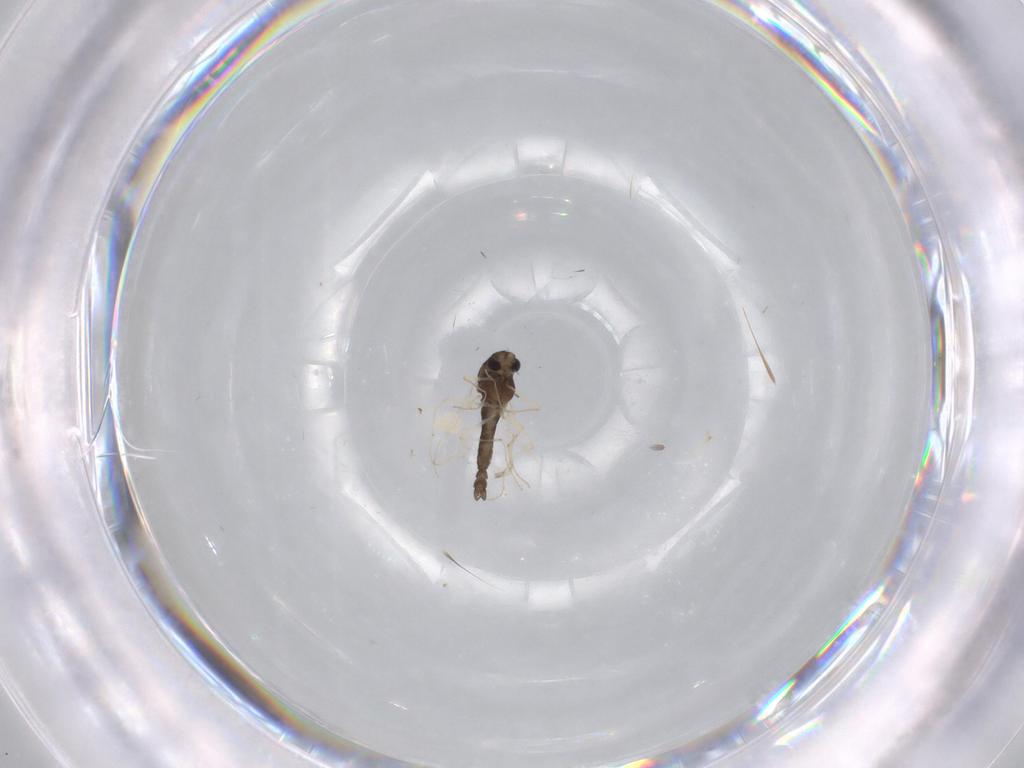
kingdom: Animalia
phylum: Arthropoda
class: Insecta
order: Diptera
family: Chironomidae
